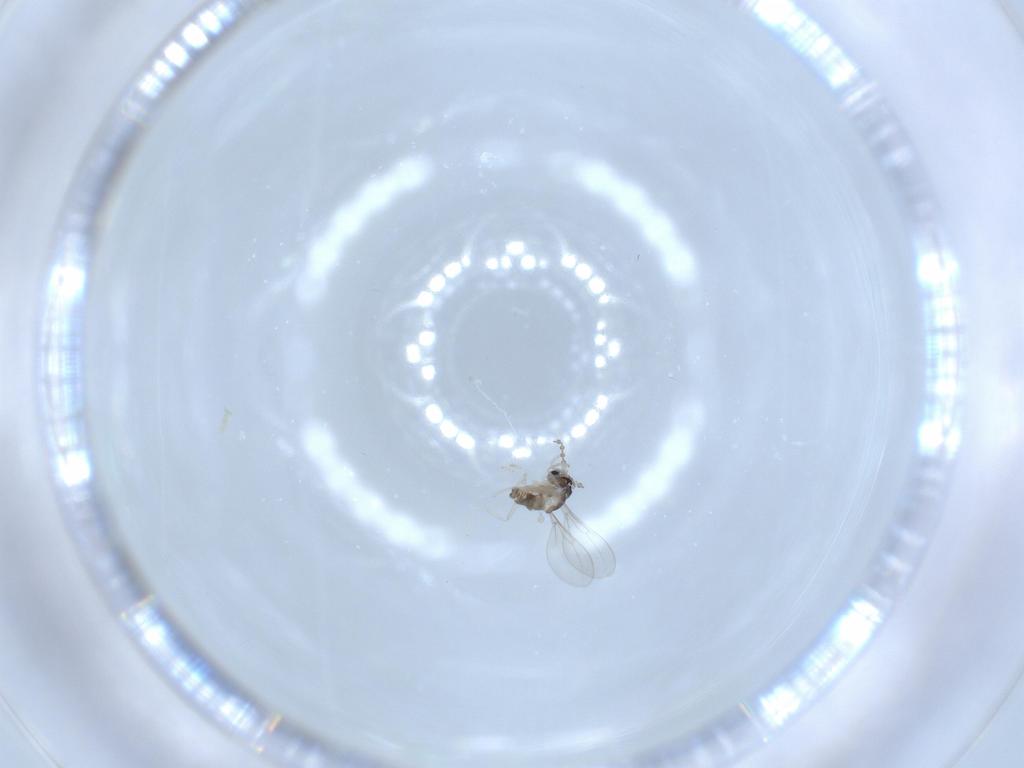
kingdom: Animalia
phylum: Arthropoda
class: Insecta
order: Diptera
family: Cecidomyiidae
